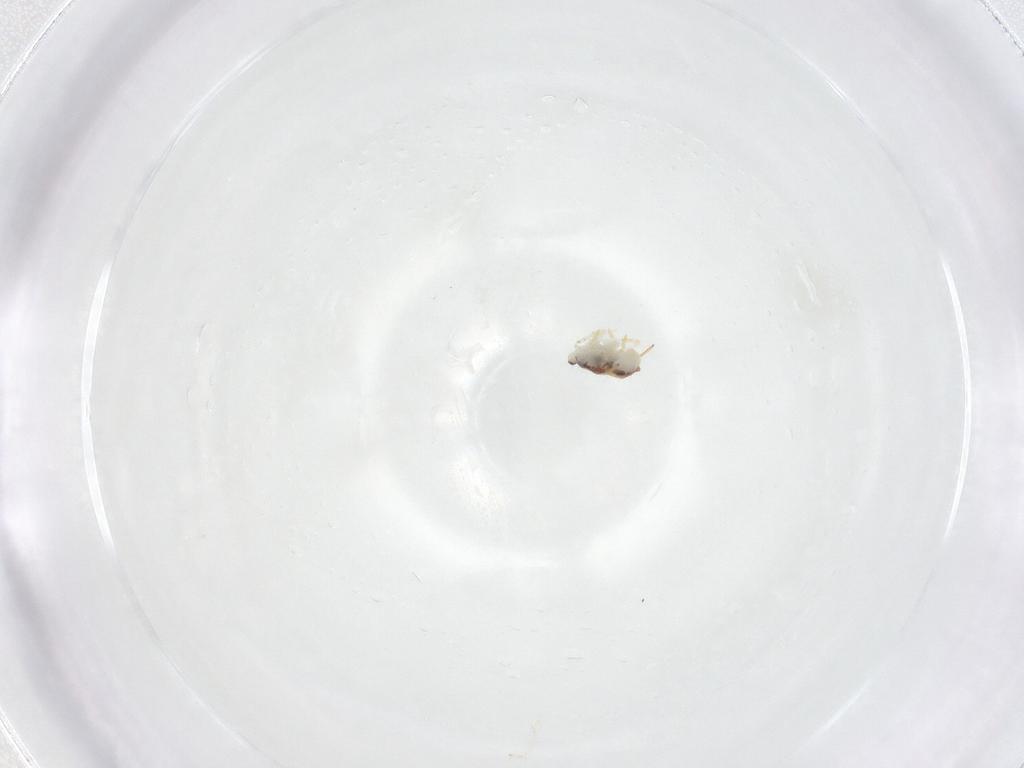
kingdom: Animalia
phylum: Arthropoda
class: Collembola
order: Symphypleona
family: Bourletiellidae
